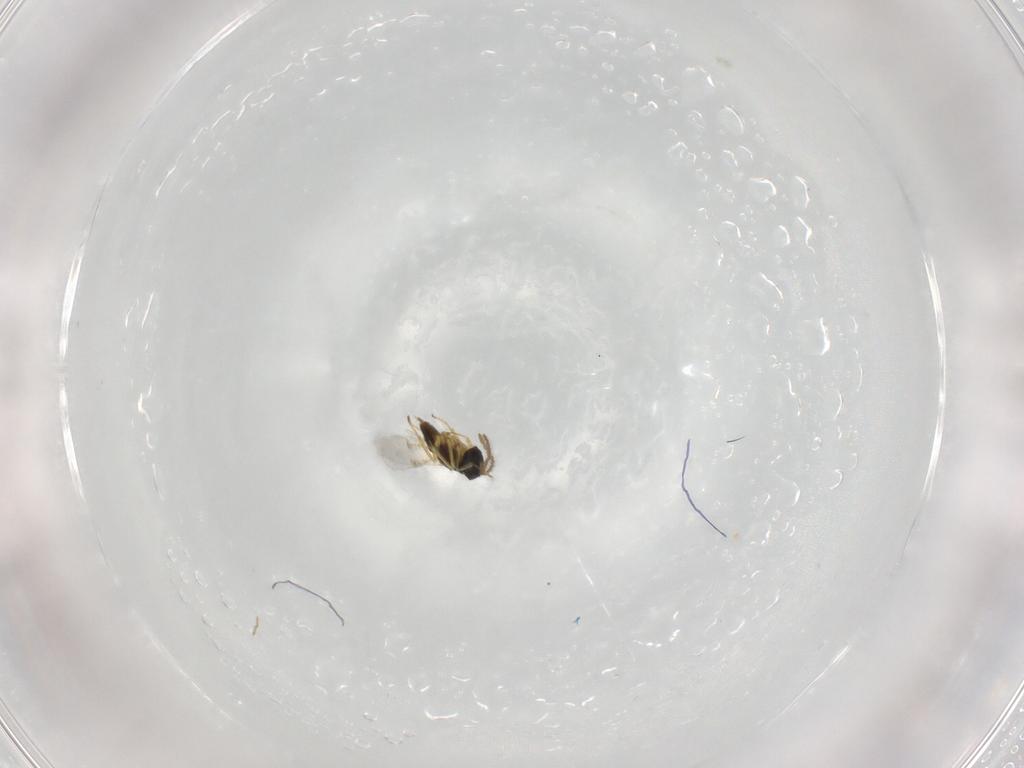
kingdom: Animalia
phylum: Arthropoda
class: Insecta
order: Hymenoptera
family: Encyrtidae
